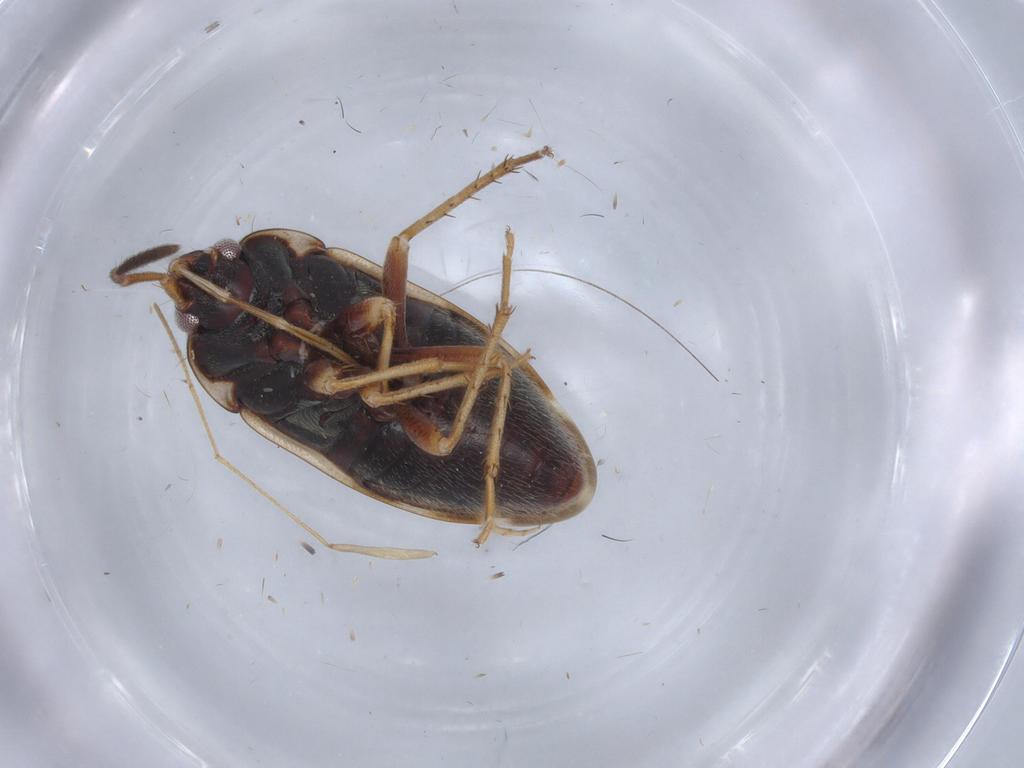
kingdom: Animalia
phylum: Arthropoda
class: Insecta
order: Hemiptera
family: Cicadellidae
